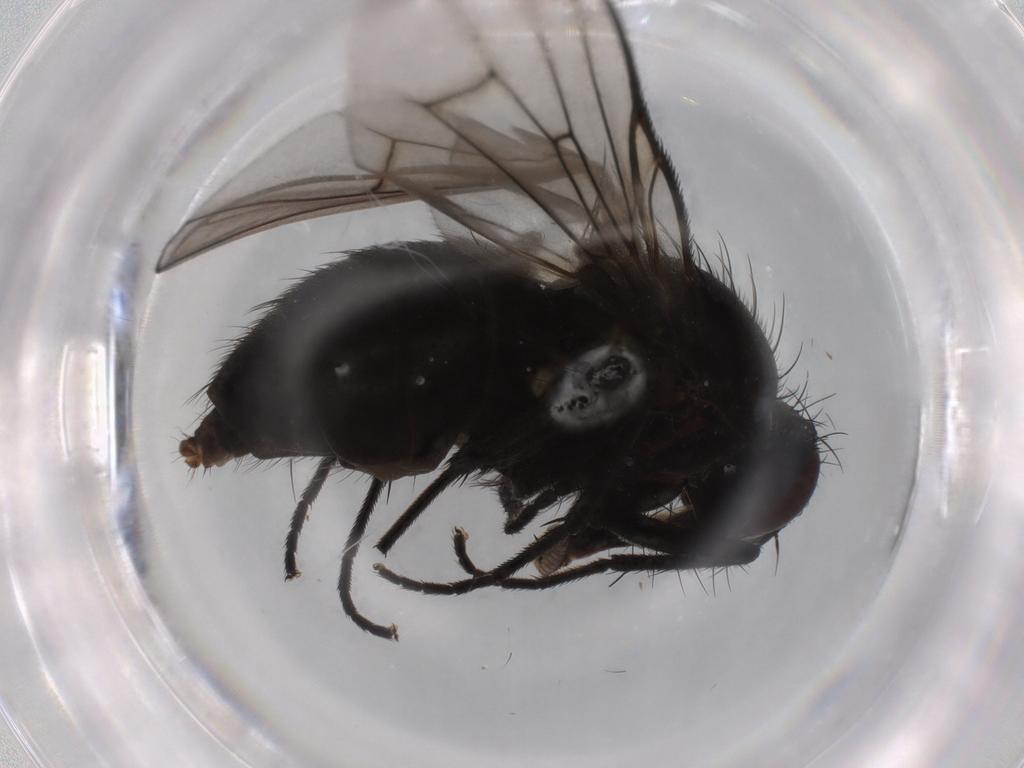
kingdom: Animalia
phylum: Arthropoda
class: Insecta
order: Diptera
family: Muscidae
